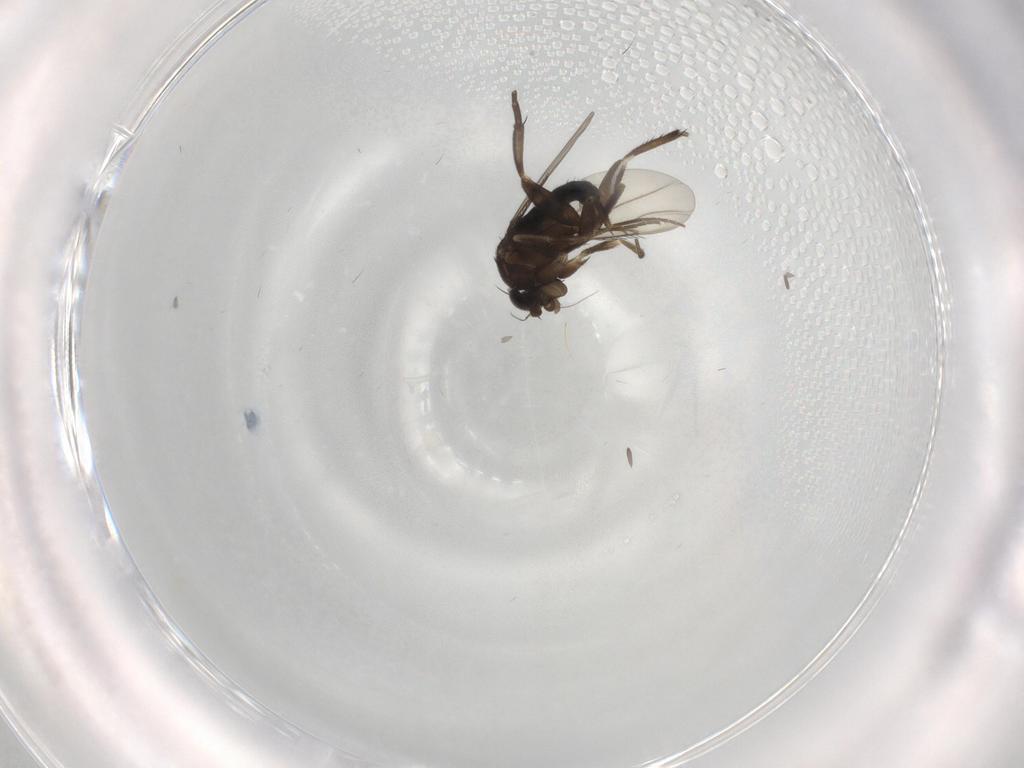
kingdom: Animalia
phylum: Arthropoda
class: Insecta
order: Diptera
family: Phoridae
